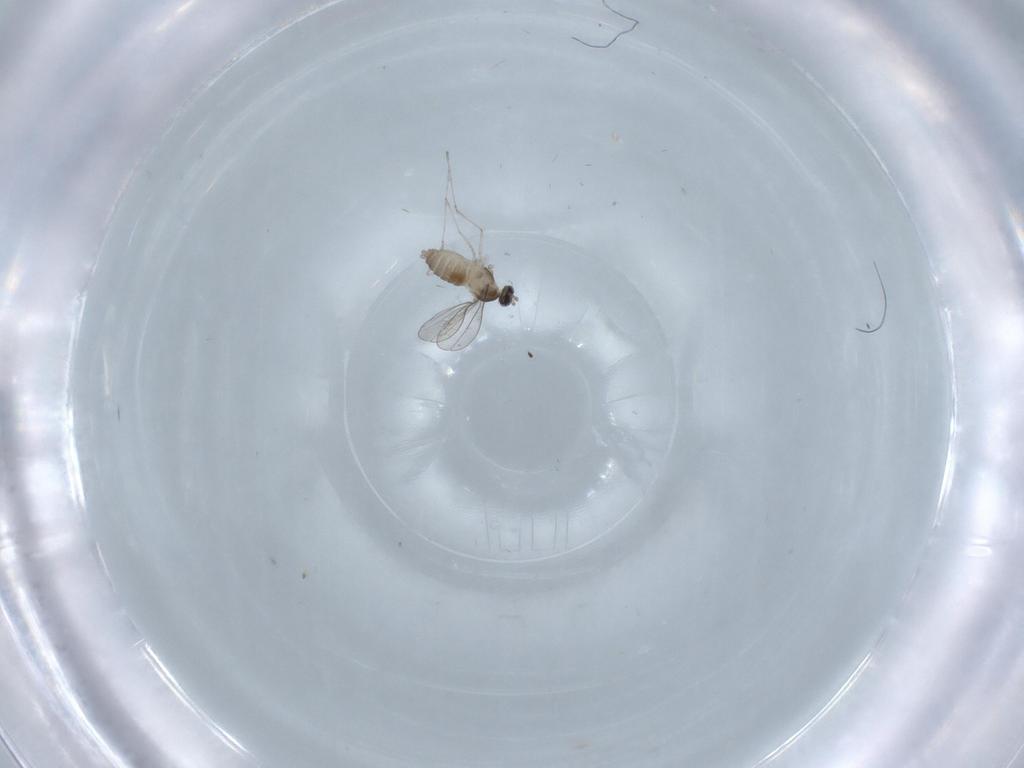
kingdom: Animalia
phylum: Arthropoda
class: Insecta
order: Diptera
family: Cecidomyiidae
